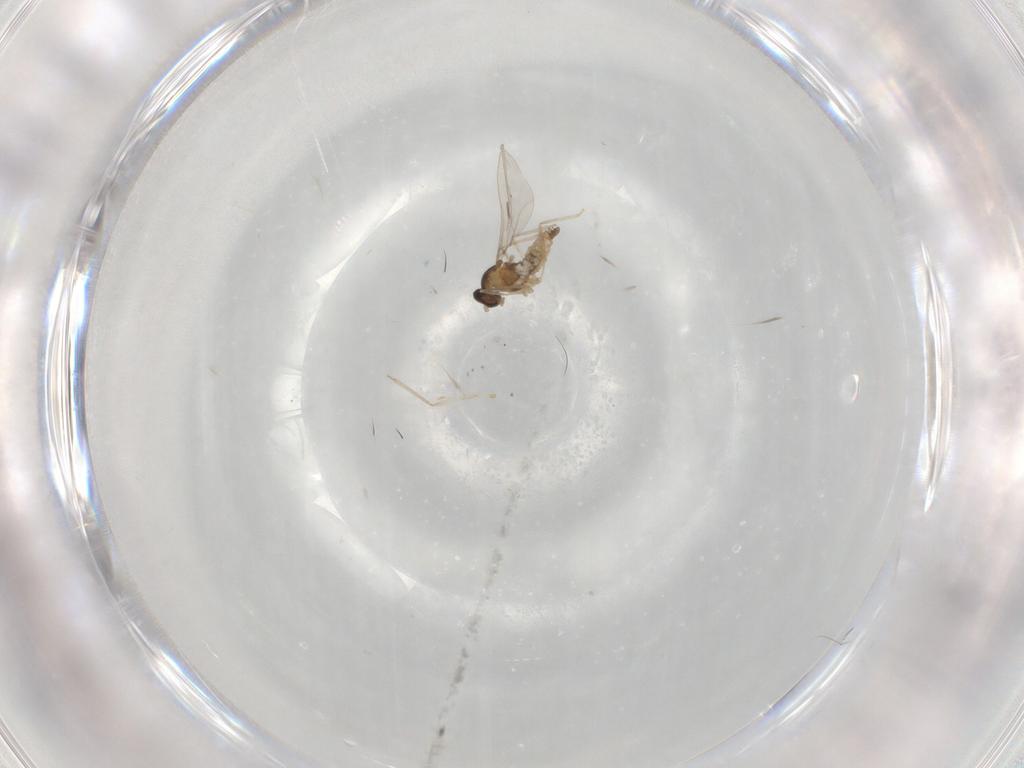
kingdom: Animalia
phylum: Arthropoda
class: Insecta
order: Diptera
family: Cecidomyiidae
